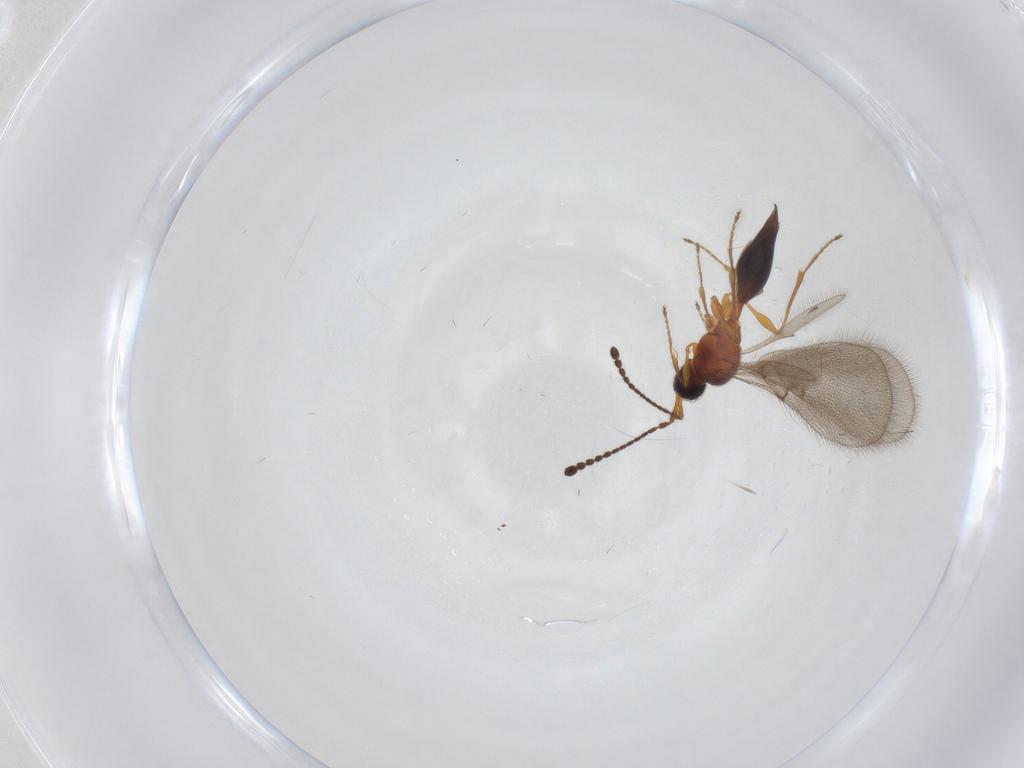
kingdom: Animalia
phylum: Arthropoda
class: Insecta
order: Hymenoptera
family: Diapriidae
